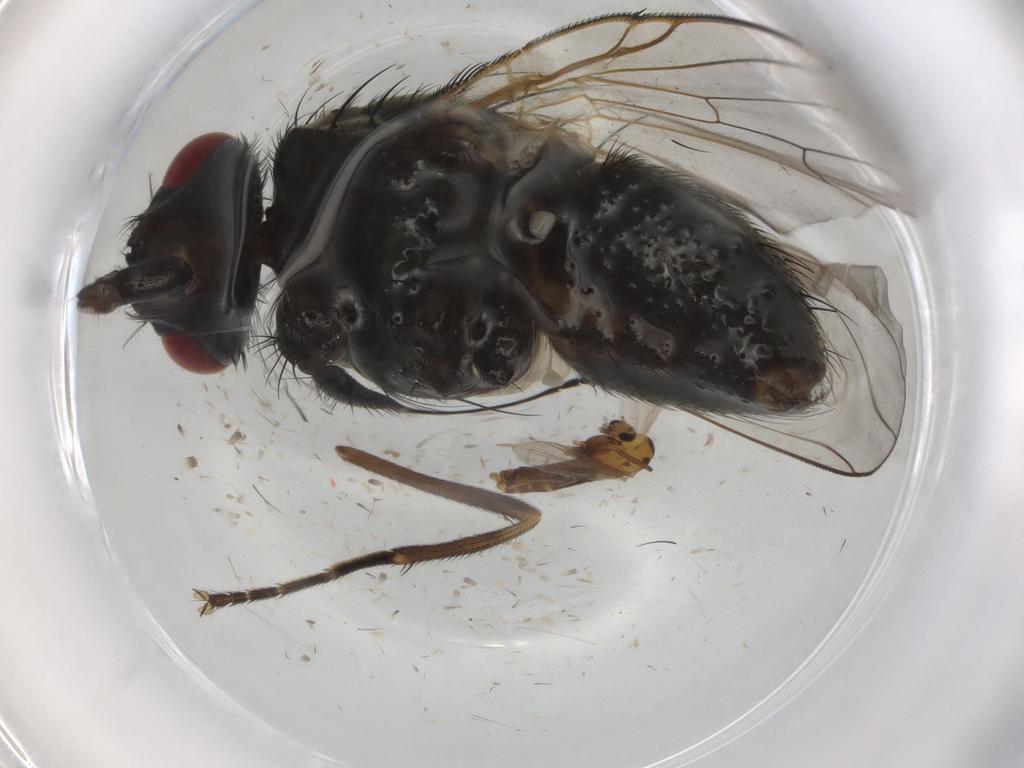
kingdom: Animalia
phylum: Arthropoda
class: Insecta
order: Diptera
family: Muscidae
